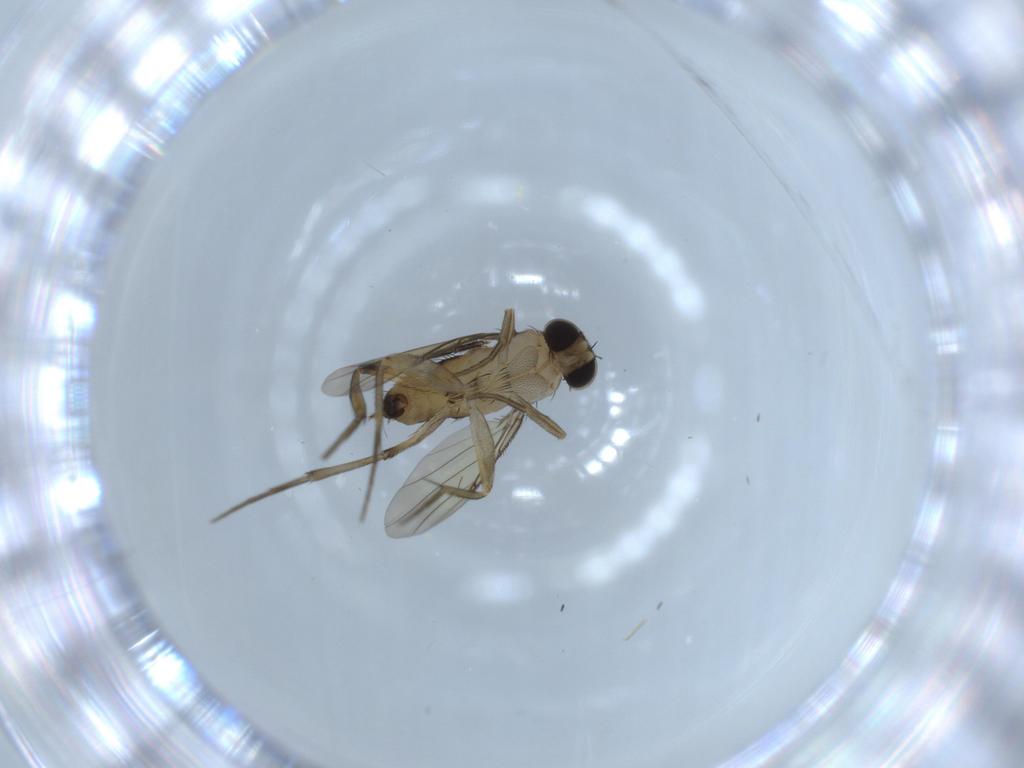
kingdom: Animalia
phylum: Arthropoda
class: Insecta
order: Diptera
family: Phoridae
